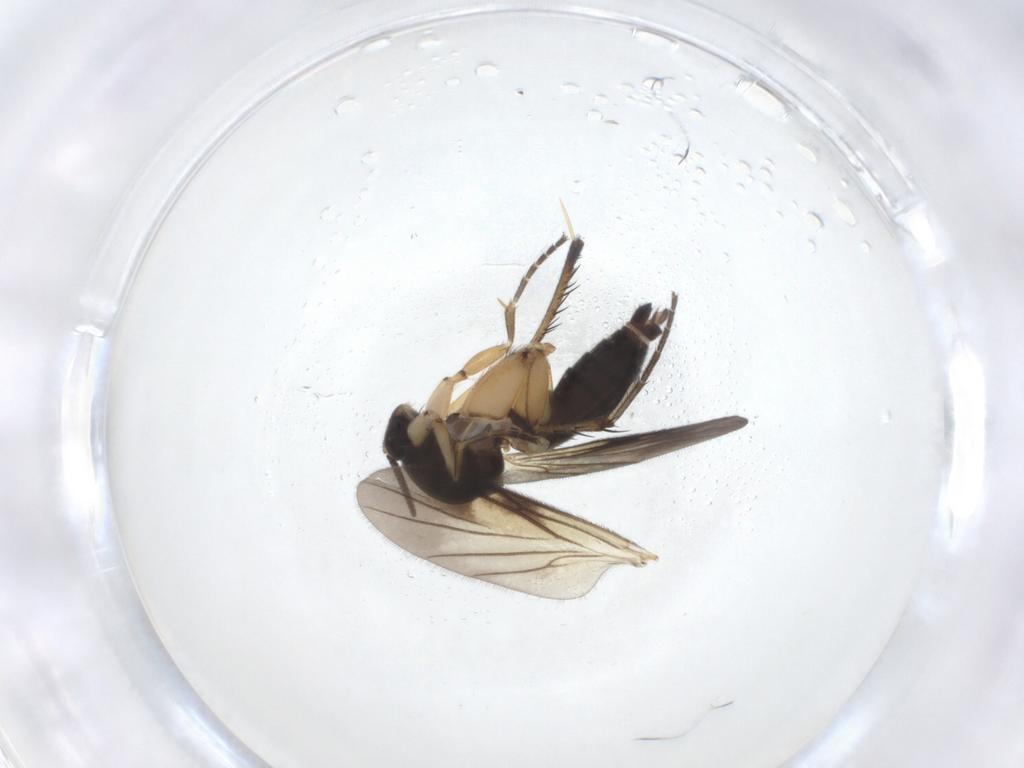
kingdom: Animalia
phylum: Arthropoda
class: Insecta
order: Diptera
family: Mycetophilidae
